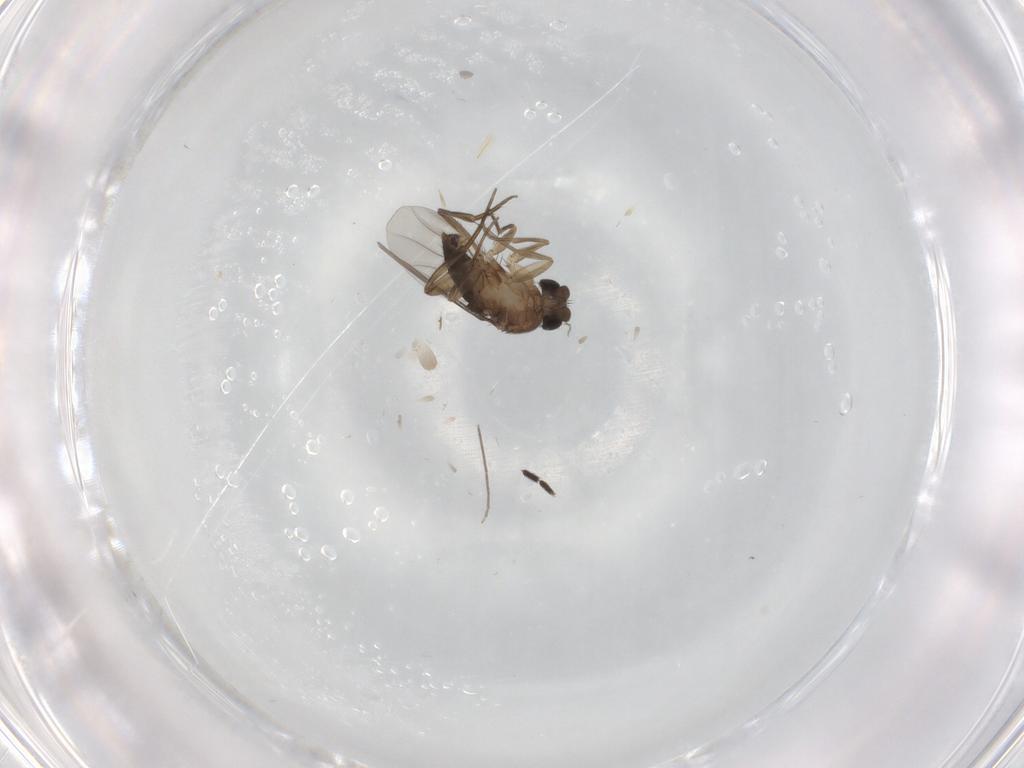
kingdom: Animalia
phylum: Arthropoda
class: Insecta
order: Diptera
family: Phoridae
